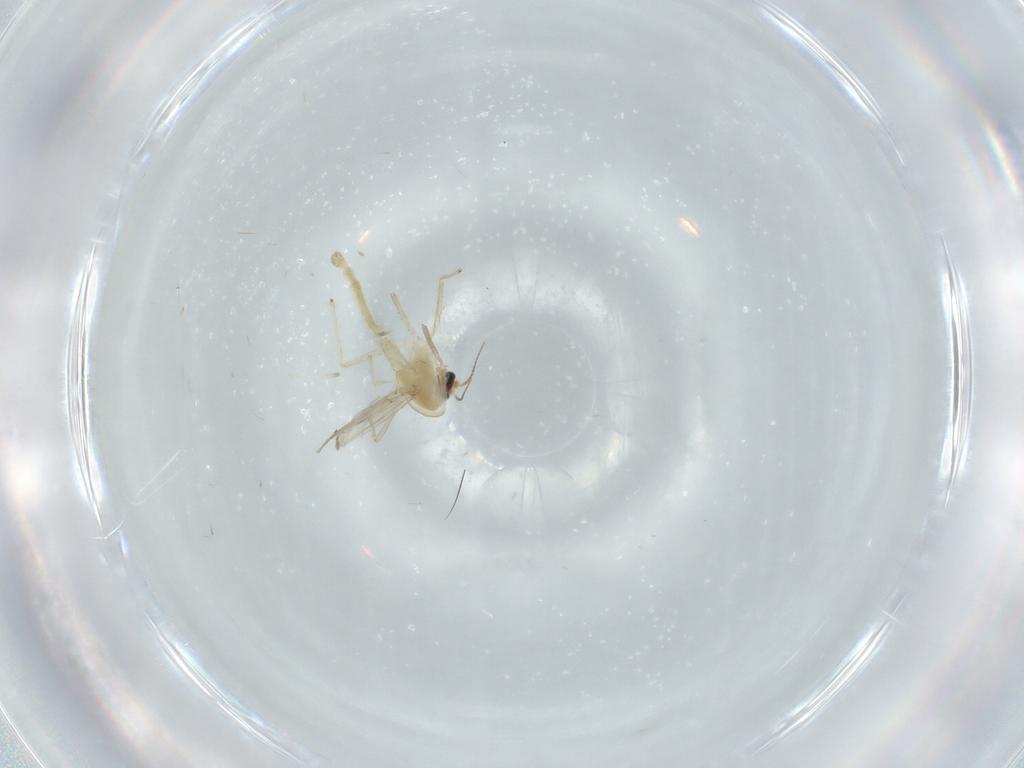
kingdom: Animalia
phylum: Arthropoda
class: Insecta
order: Diptera
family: Chironomidae
